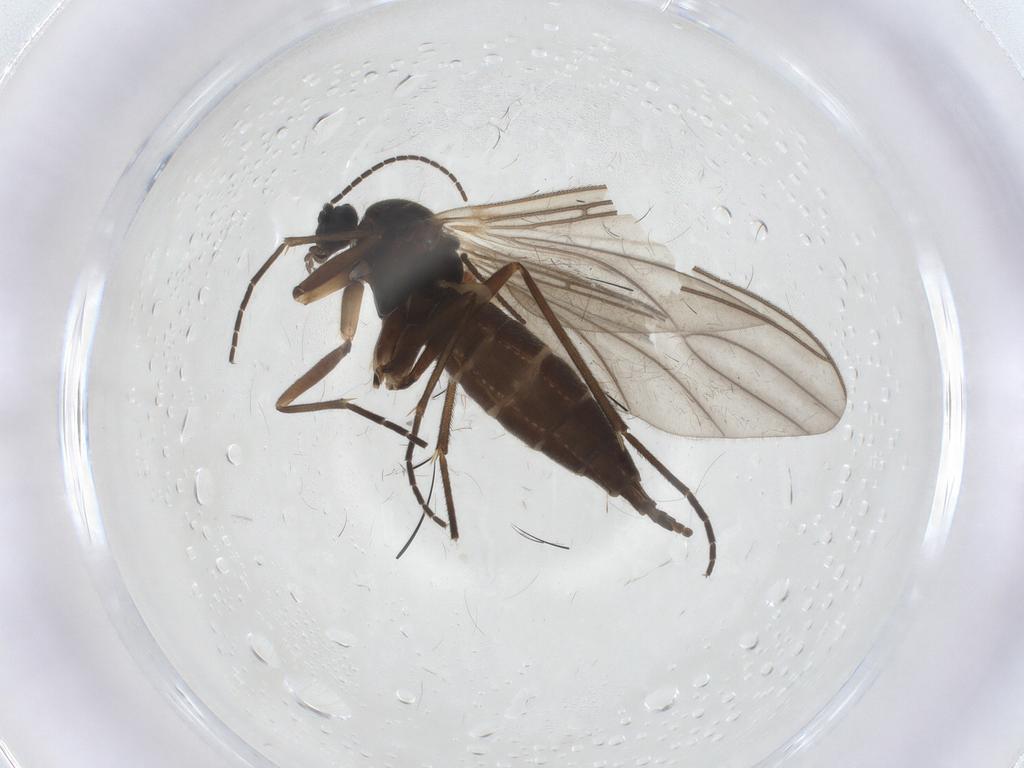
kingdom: Animalia
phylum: Arthropoda
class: Insecta
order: Diptera
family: Sciaridae
